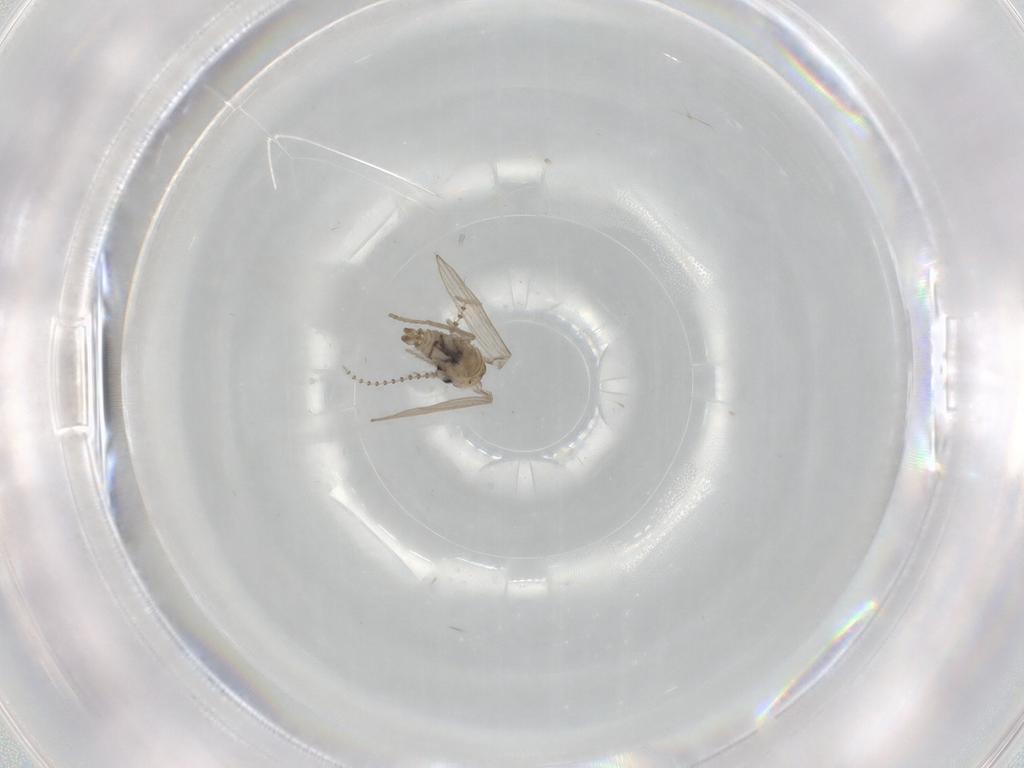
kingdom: Animalia
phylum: Arthropoda
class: Insecta
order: Diptera
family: Psychodidae
